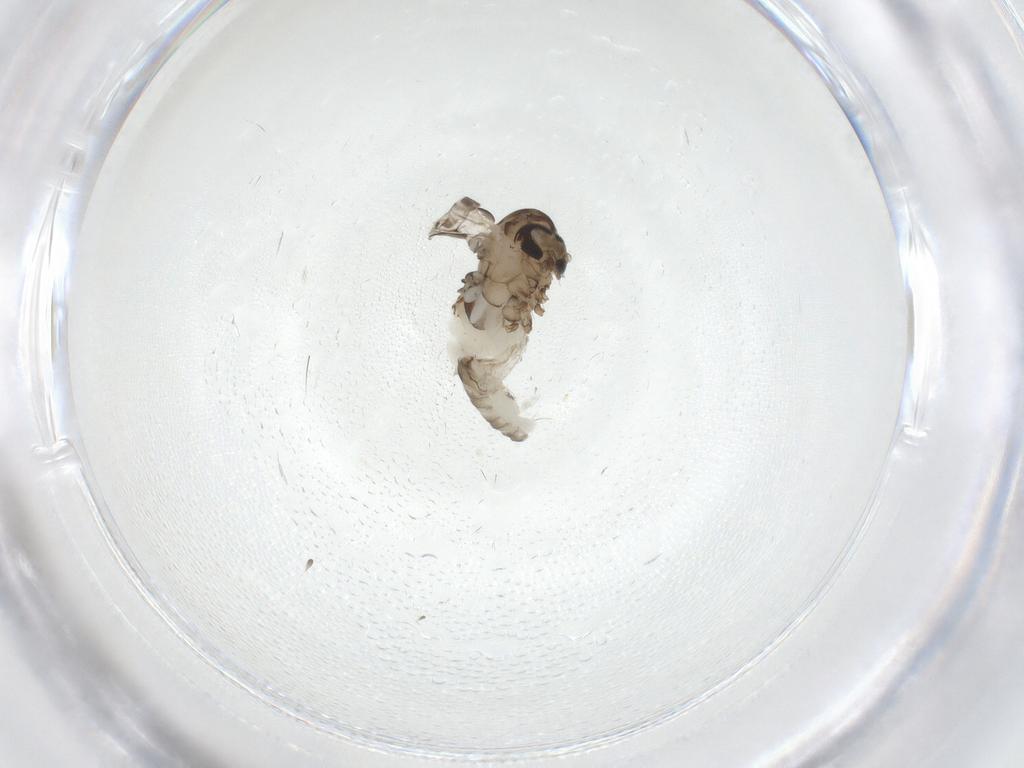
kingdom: Animalia
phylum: Arthropoda
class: Insecta
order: Diptera
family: Psychodidae
